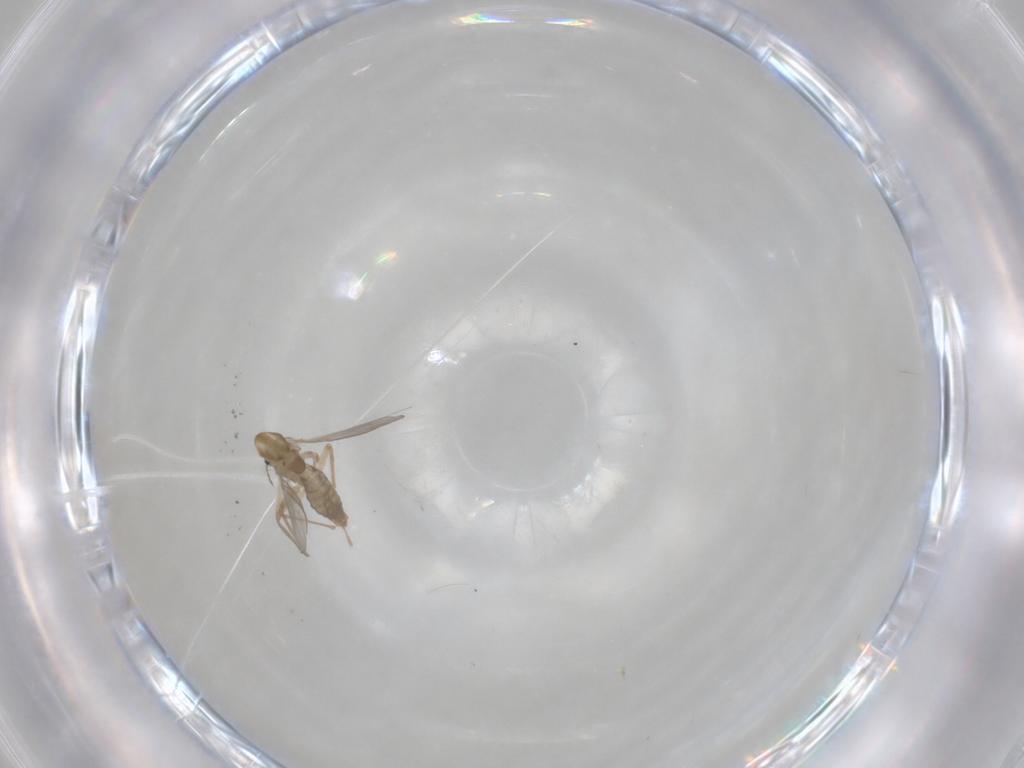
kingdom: Animalia
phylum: Arthropoda
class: Insecta
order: Diptera
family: Chironomidae
